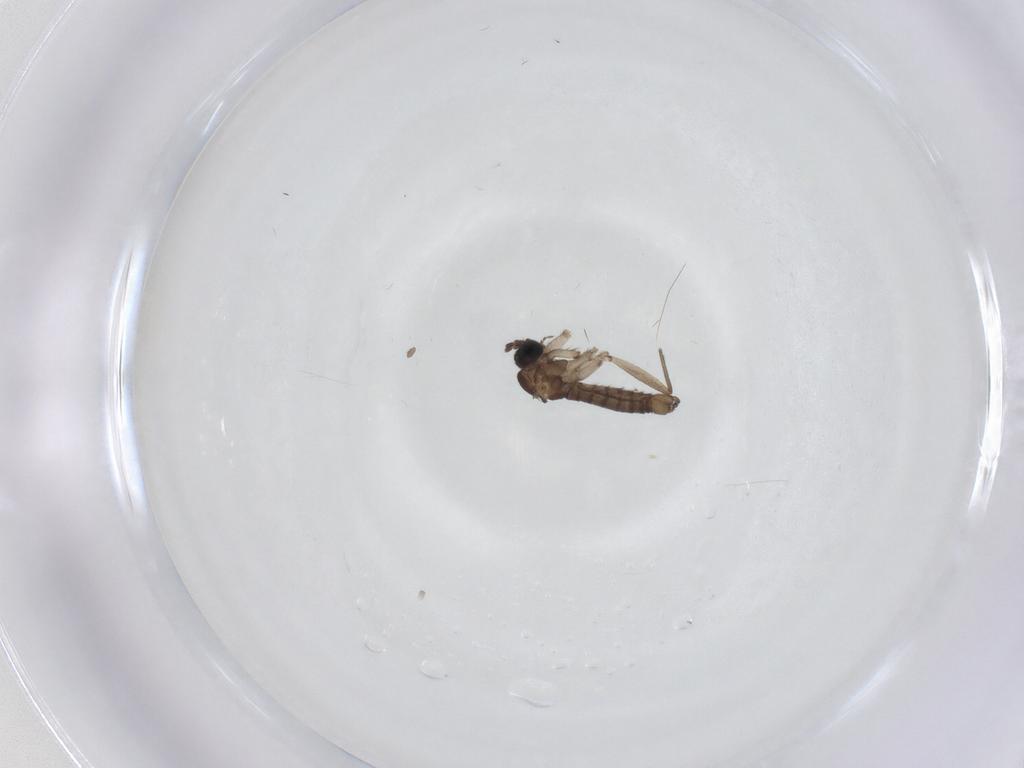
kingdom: Animalia
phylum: Arthropoda
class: Insecta
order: Diptera
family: Phoridae
